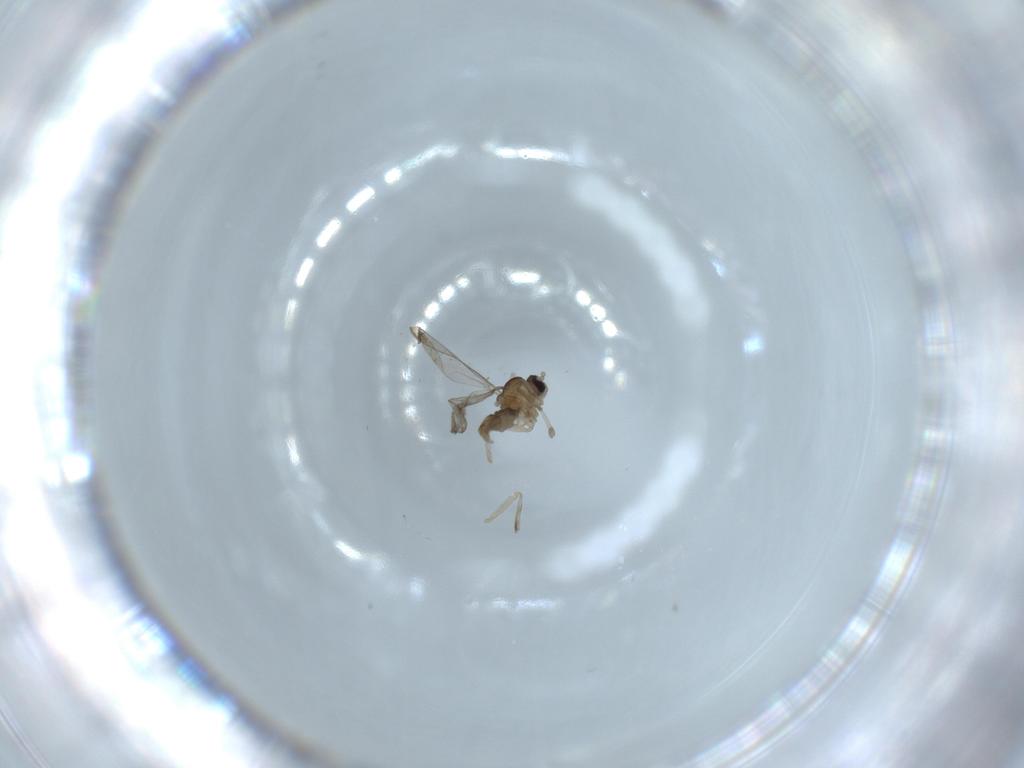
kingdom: Animalia
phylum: Arthropoda
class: Insecta
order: Diptera
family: Cecidomyiidae
